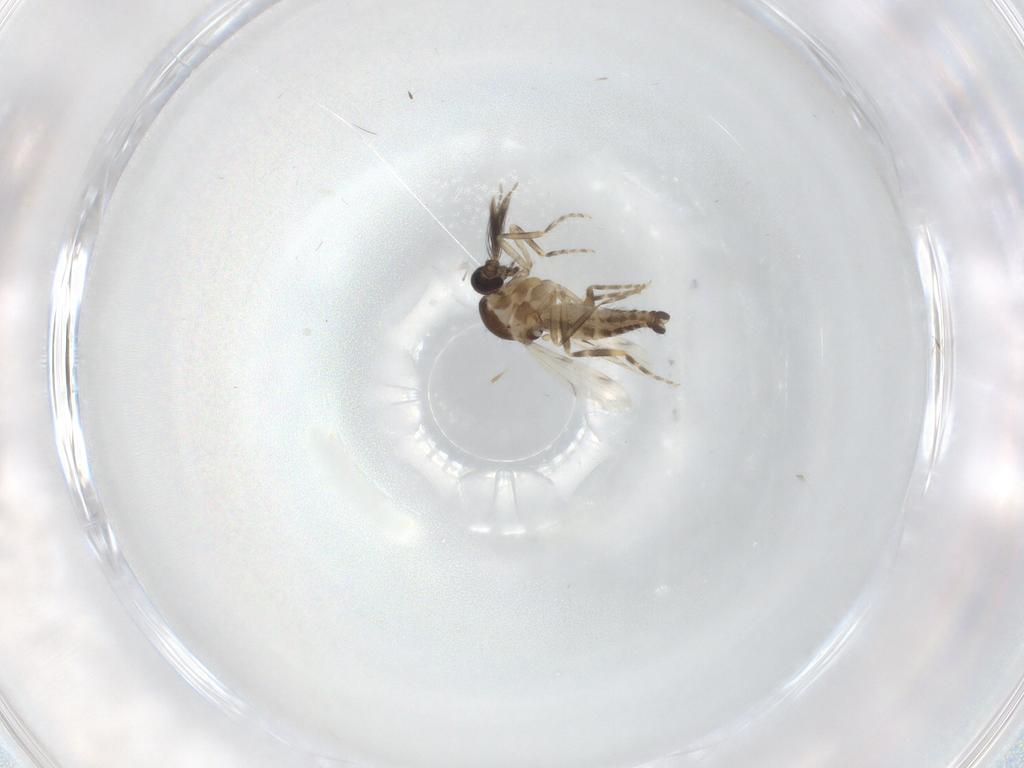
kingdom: Animalia
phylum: Arthropoda
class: Insecta
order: Diptera
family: Ceratopogonidae
